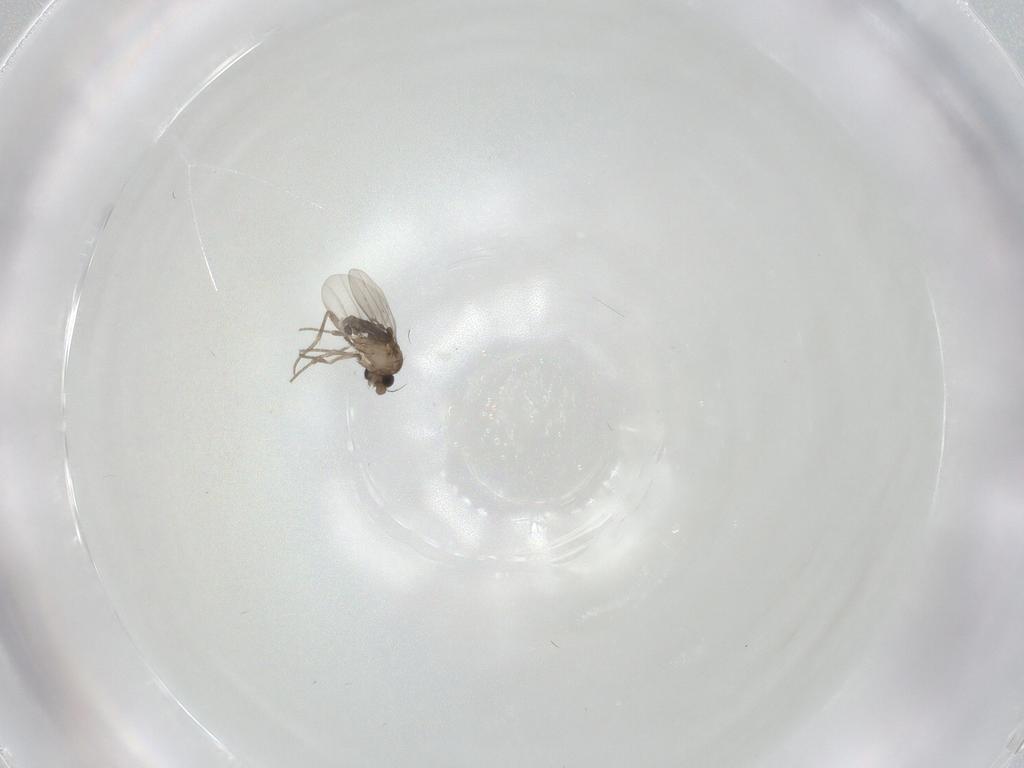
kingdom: Animalia
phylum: Arthropoda
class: Insecta
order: Diptera
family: Phoridae
